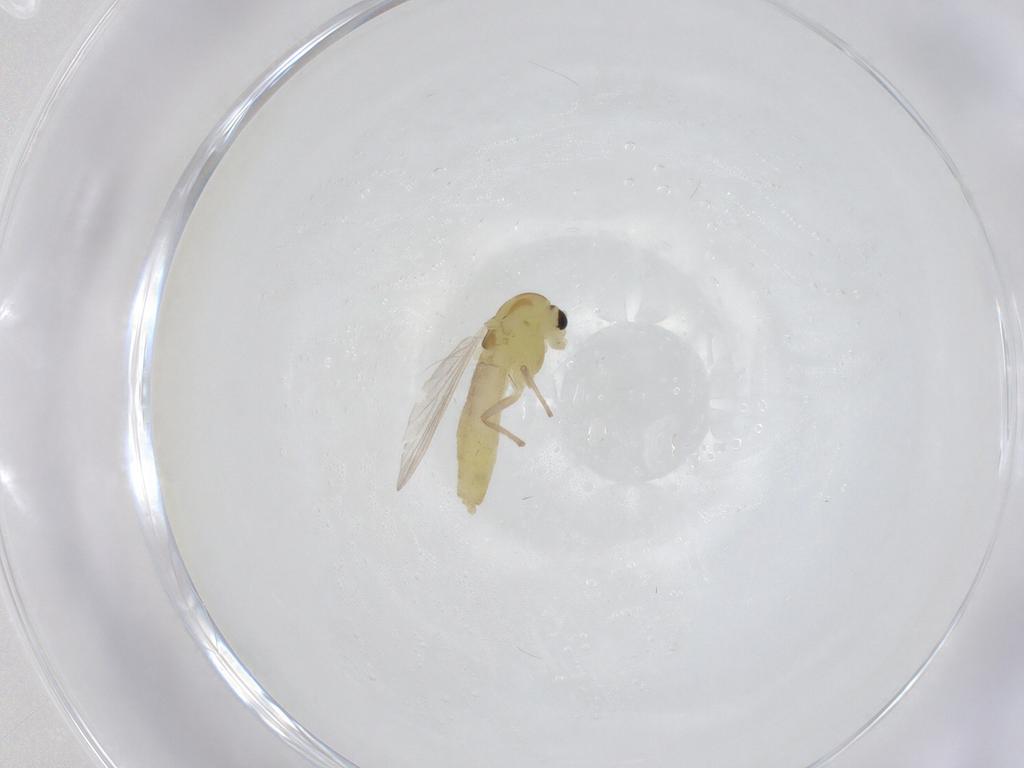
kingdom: Animalia
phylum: Arthropoda
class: Insecta
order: Diptera
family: Chironomidae
